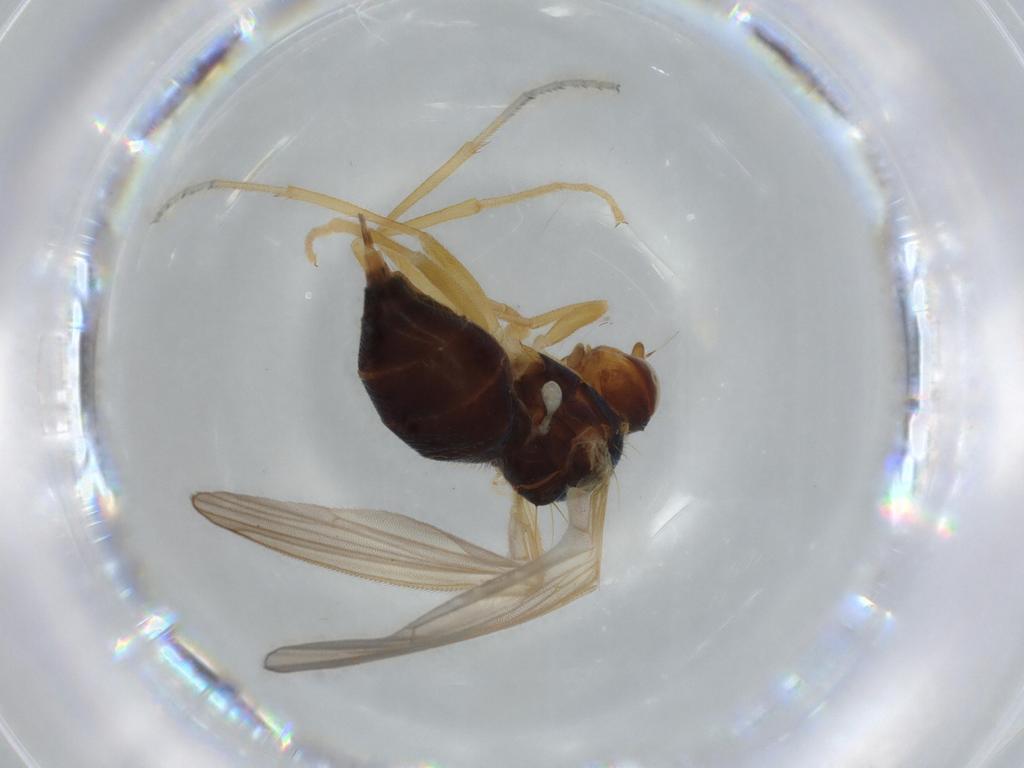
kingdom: Animalia
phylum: Arthropoda
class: Insecta
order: Diptera
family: Psilidae
